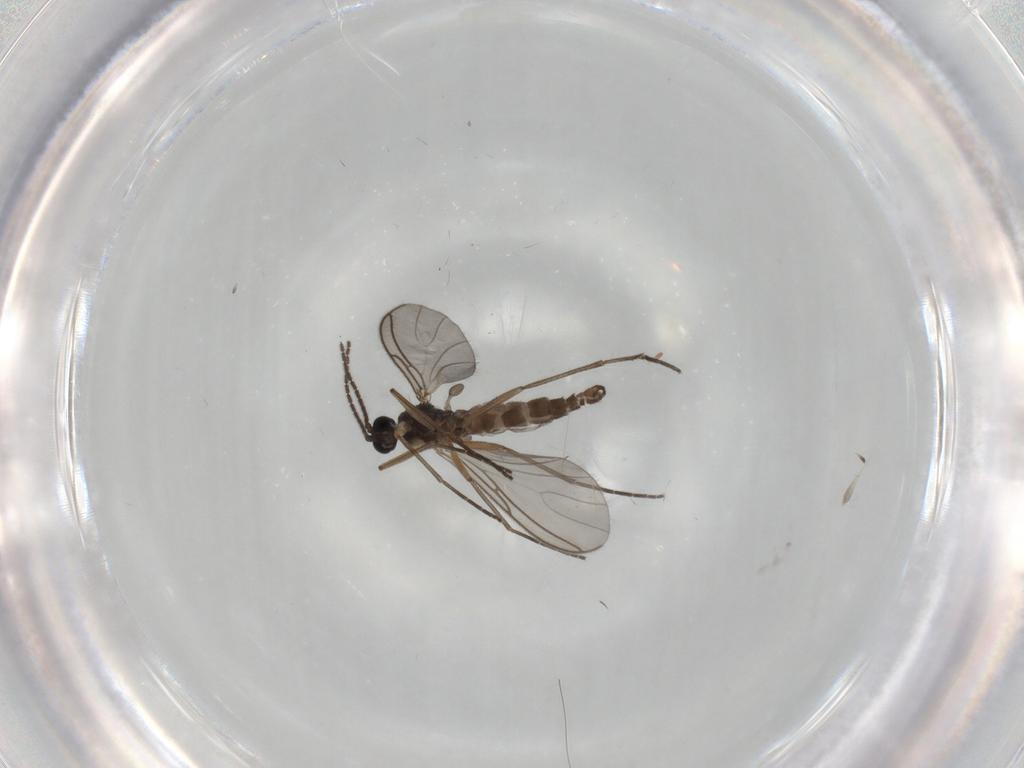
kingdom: Animalia
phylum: Arthropoda
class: Insecta
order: Diptera
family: Sciaridae
